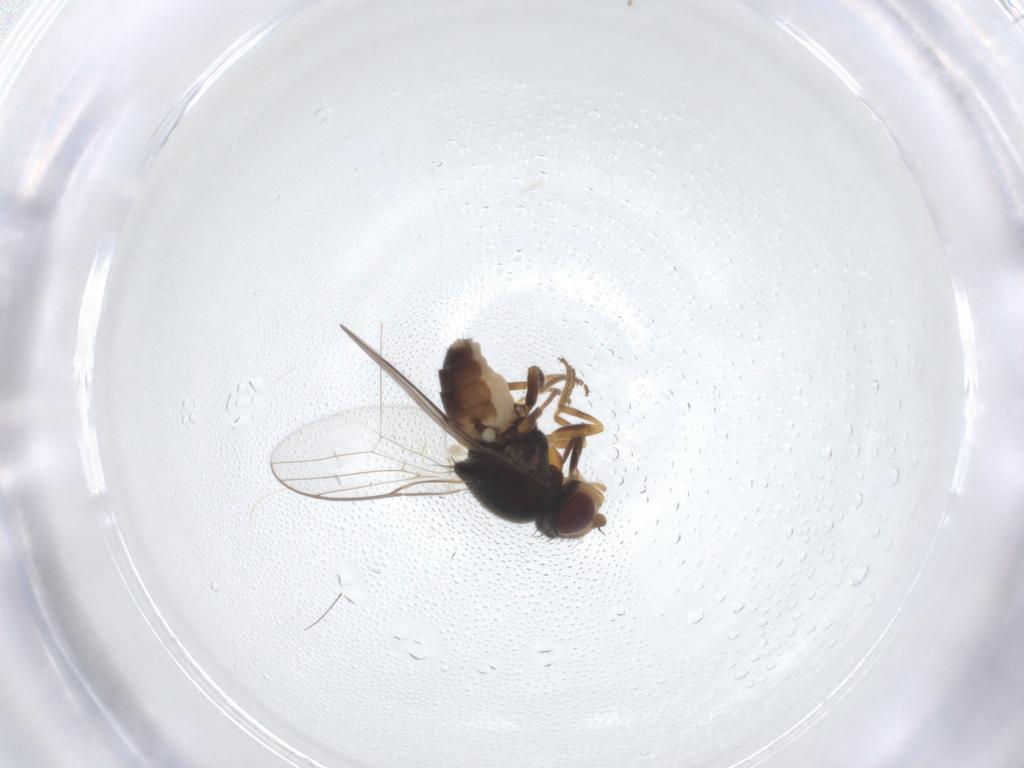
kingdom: Animalia
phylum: Arthropoda
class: Insecta
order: Diptera
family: Chloropidae
